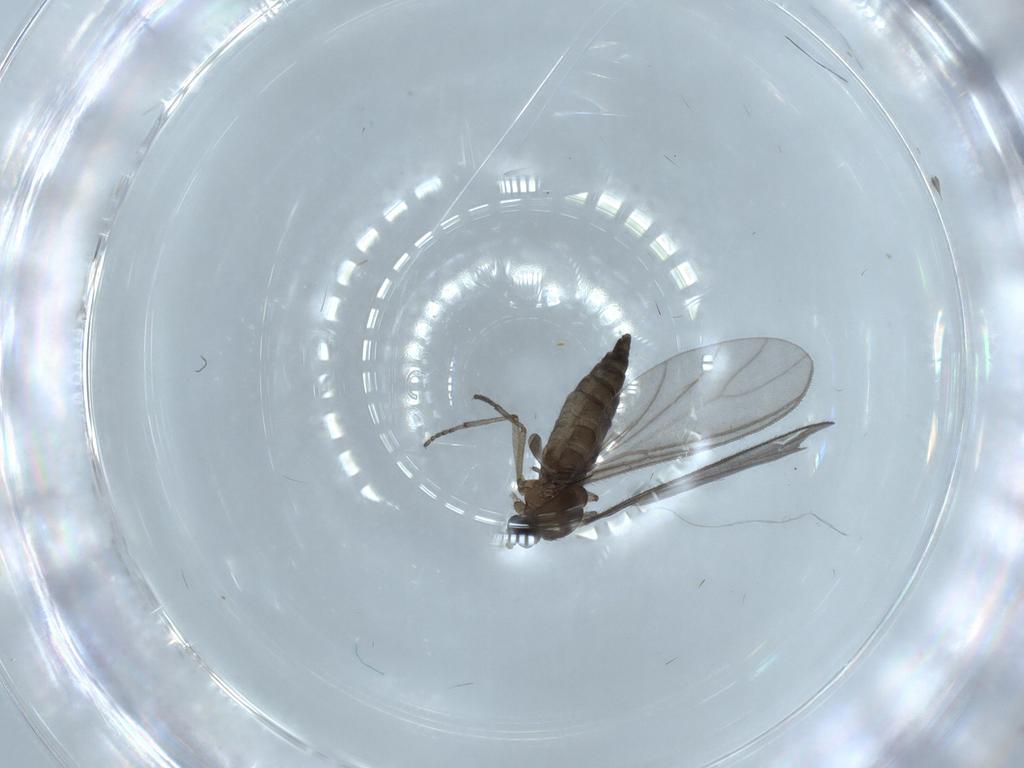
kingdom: Animalia
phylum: Arthropoda
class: Insecta
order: Diptera
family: Sciaridae
